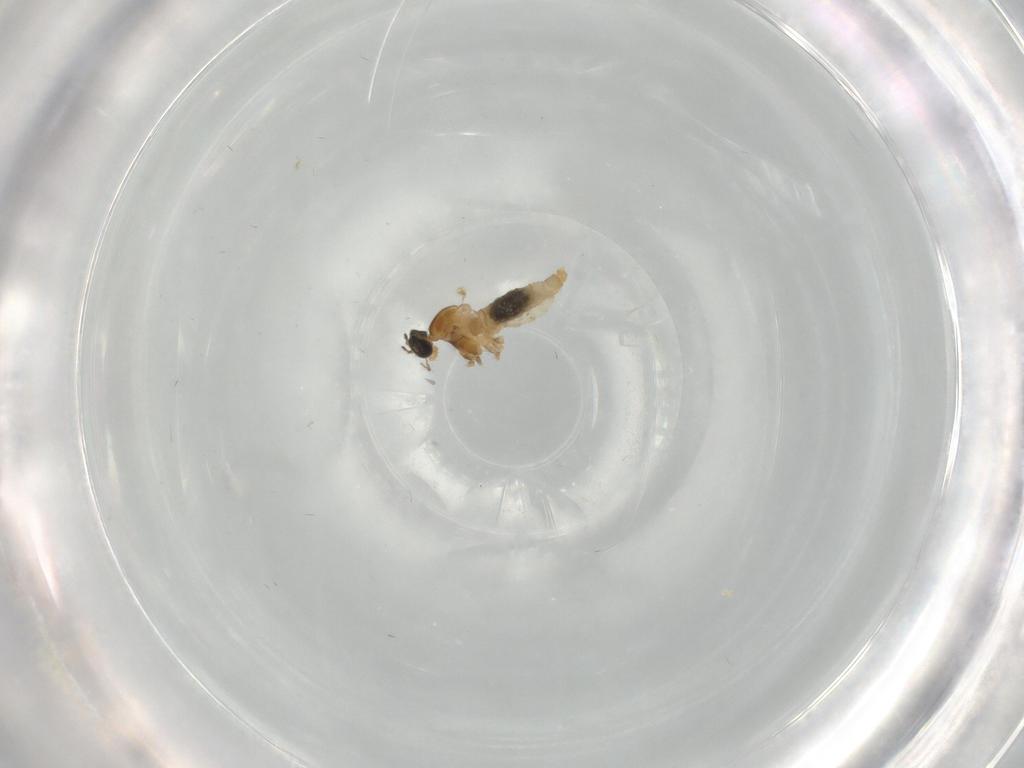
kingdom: Animalia
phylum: Arthropoda
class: Insecta
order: Diptera
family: Cecidomyiidae
